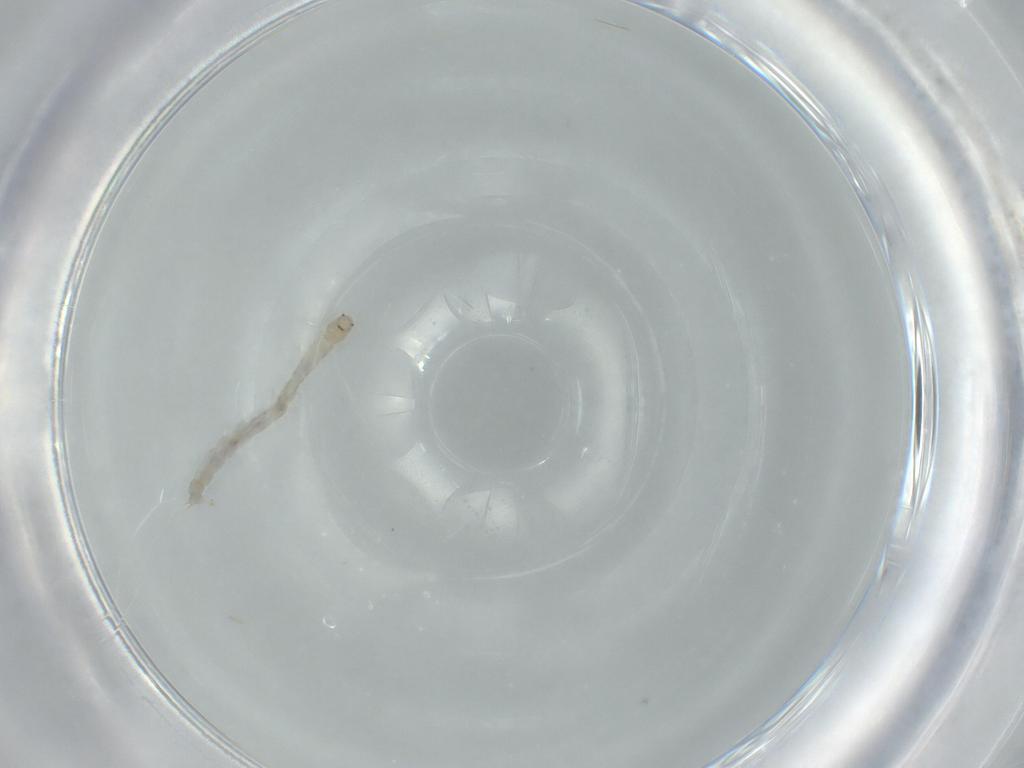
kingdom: Animalia
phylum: Arthropoda
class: Insecta
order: Diptera
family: Chironomidae
